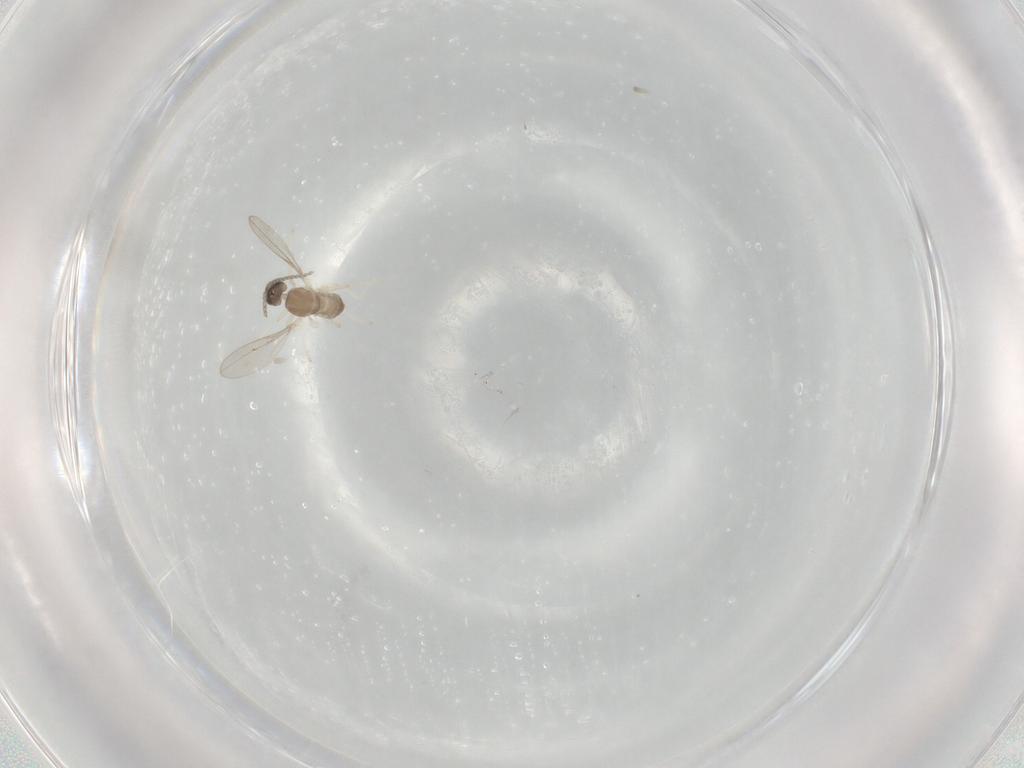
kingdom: Animalia
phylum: Arthropoda
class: Insecta
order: Diptera
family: Cecidomyiidae
